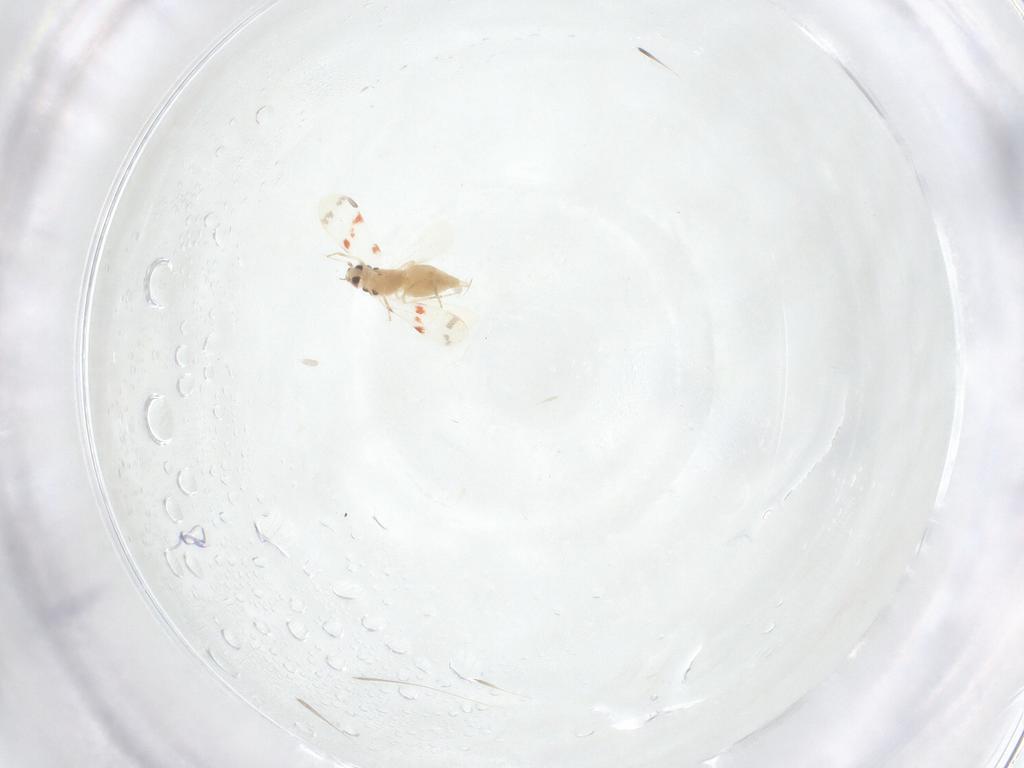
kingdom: Animalia
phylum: Arthropoda
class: Insecta
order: Hemiptera
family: Aleyrodidae
